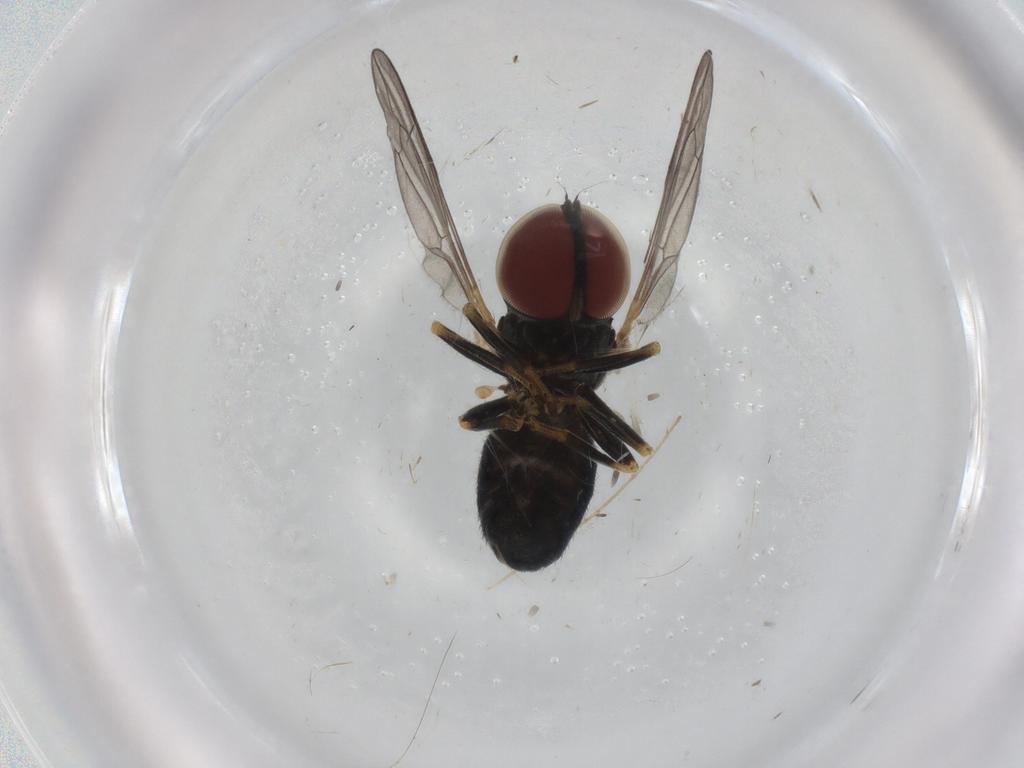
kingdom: Animalia
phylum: Arthropoda
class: Insecta
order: Diptera
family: Pipunculidae
